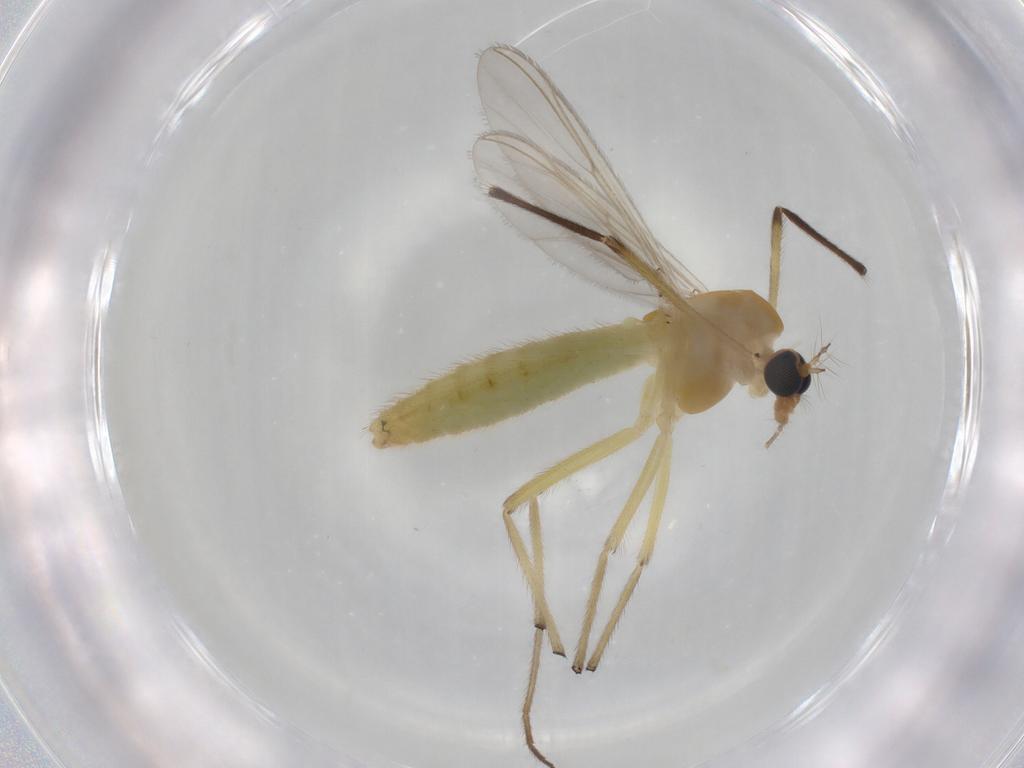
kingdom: Animalia
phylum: Arthropoda
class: Insecta
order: Diptera
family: Chironomidae
